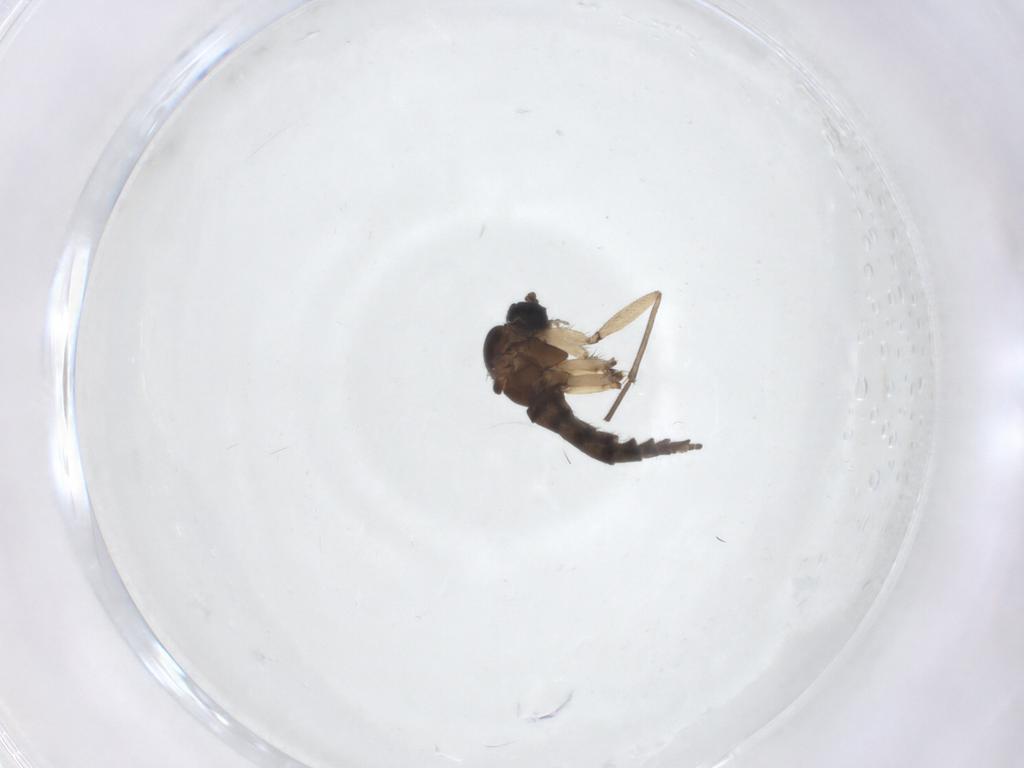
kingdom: Animalia
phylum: Arthropoda
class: Insecta
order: Diptera
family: Sciaridae
